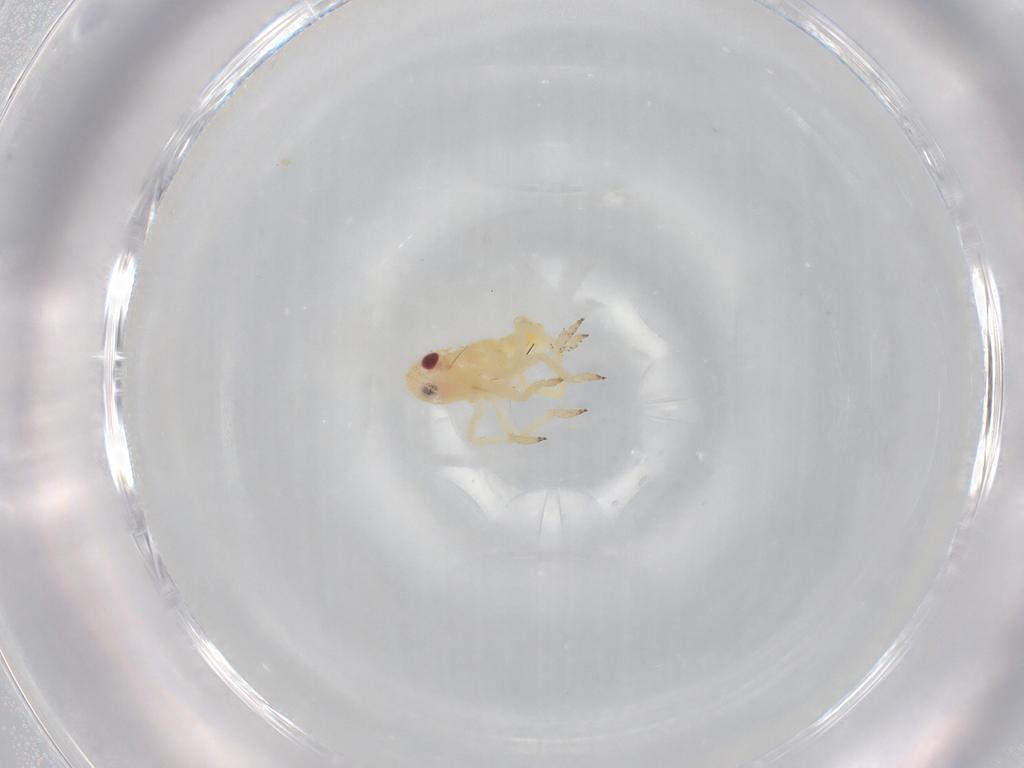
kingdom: Animalia
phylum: Arthropoda
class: Insecta
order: Hemiptera
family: Caliscelidae
